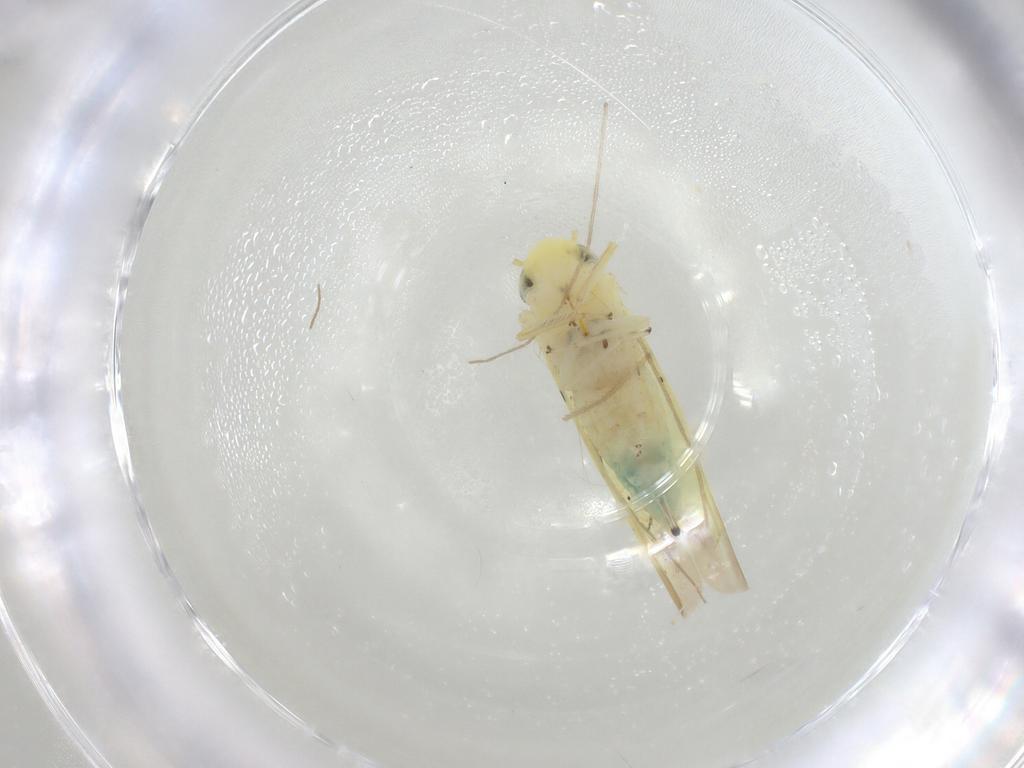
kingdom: Animalia
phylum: Arthropoda
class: Insecta
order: Hemiptera
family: Cicadellidae
